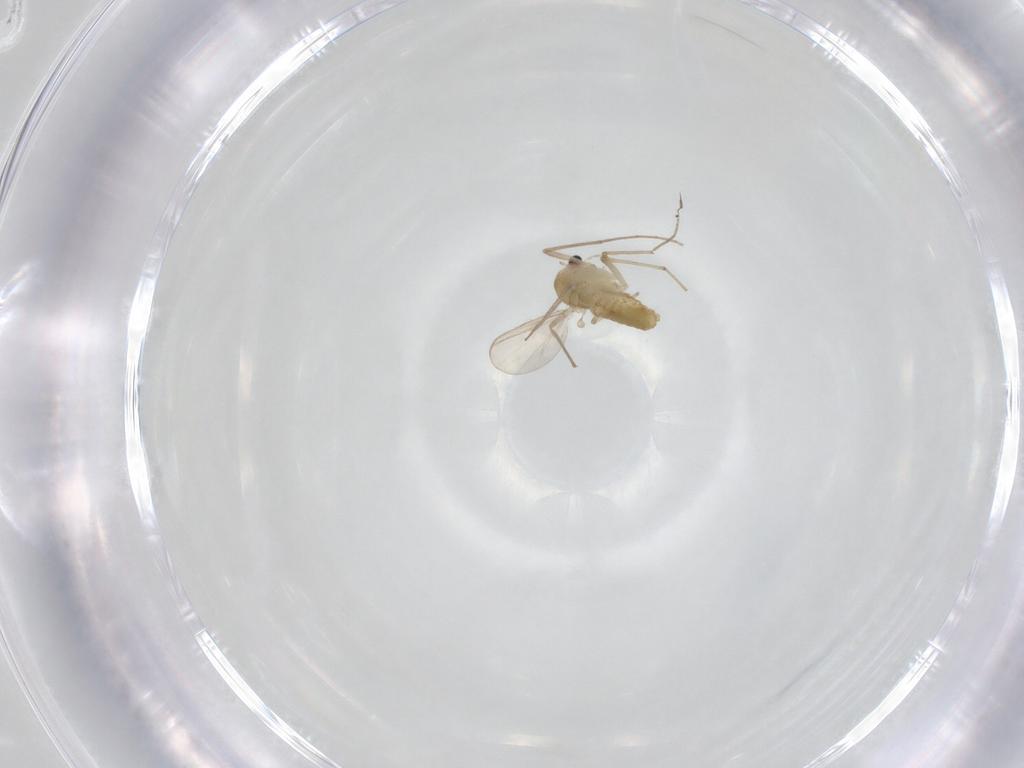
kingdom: Animalia
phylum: Arthropoda
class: Insecta
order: Diptera
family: Chironomidae
